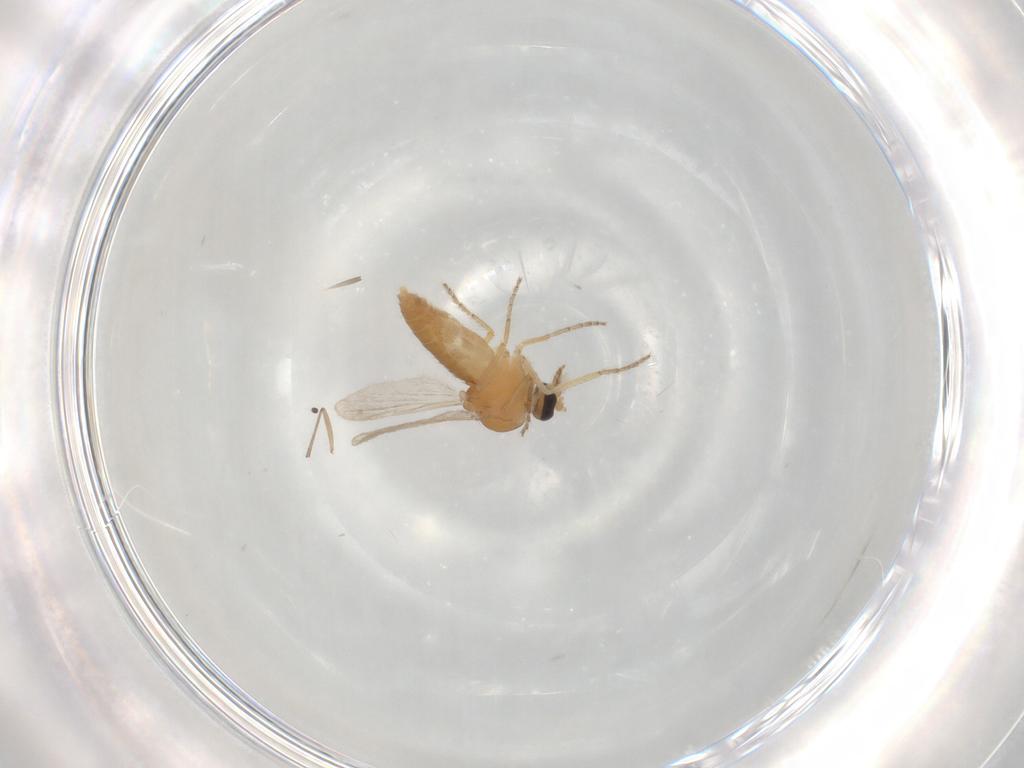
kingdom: Animalia
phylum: Arthropoda
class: Insecta
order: Diptera
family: Ceratopogonidae
